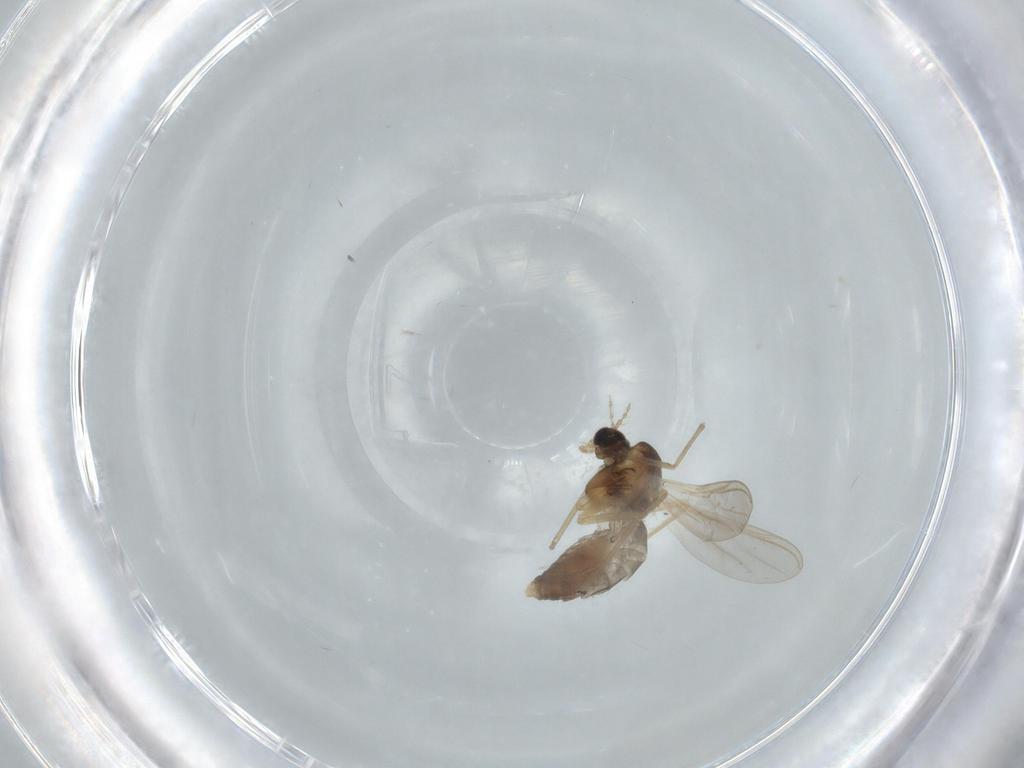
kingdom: Animalia
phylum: Arthropoda
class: Insecta
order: Diptera
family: Chironomidae
